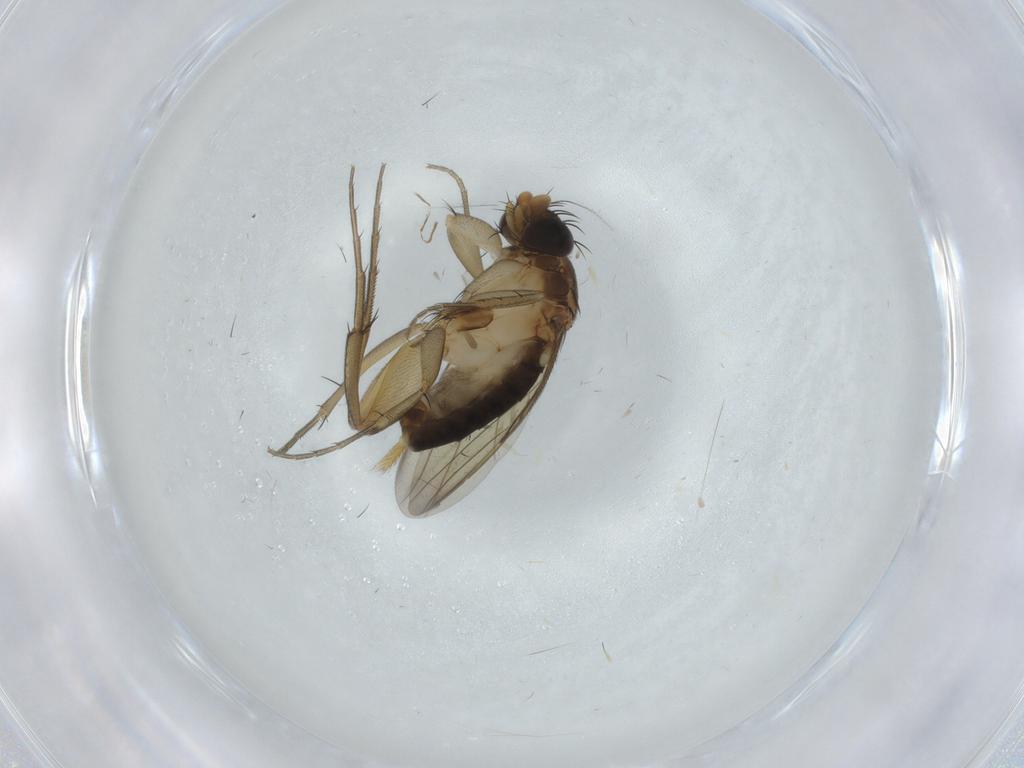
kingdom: Animalia
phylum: Arthropoda
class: Insecta
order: Diptera
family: Phoridae
